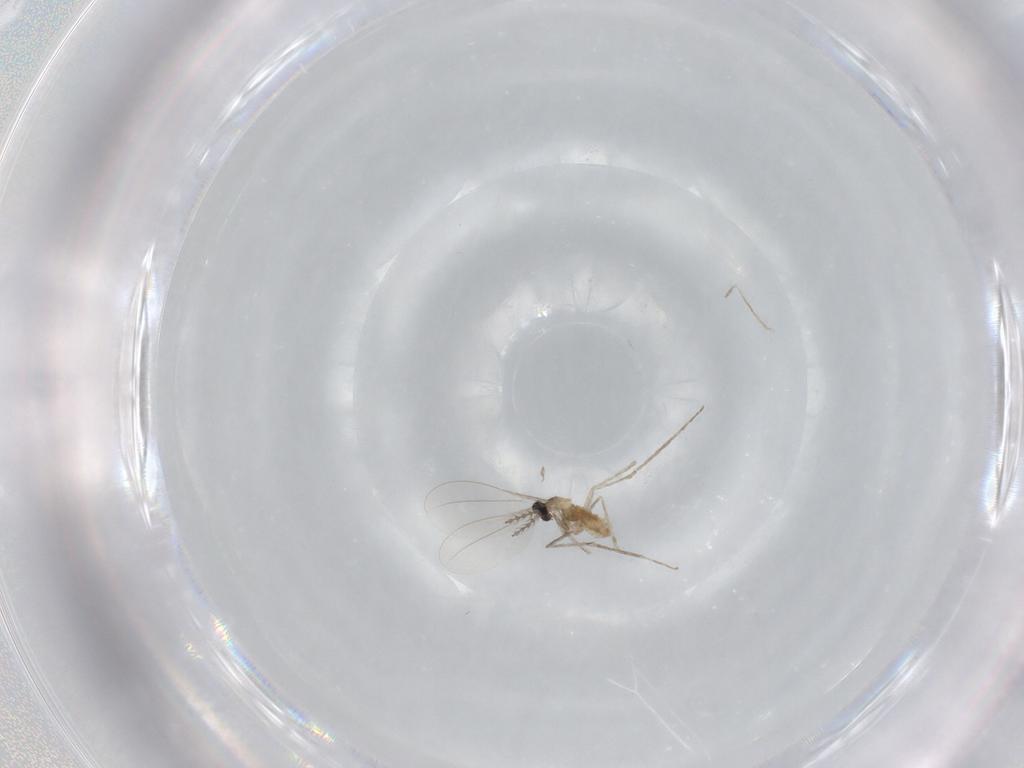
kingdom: Animalia
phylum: Arthropoda
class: Insecta
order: Diptera
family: Cecidomyiidae
